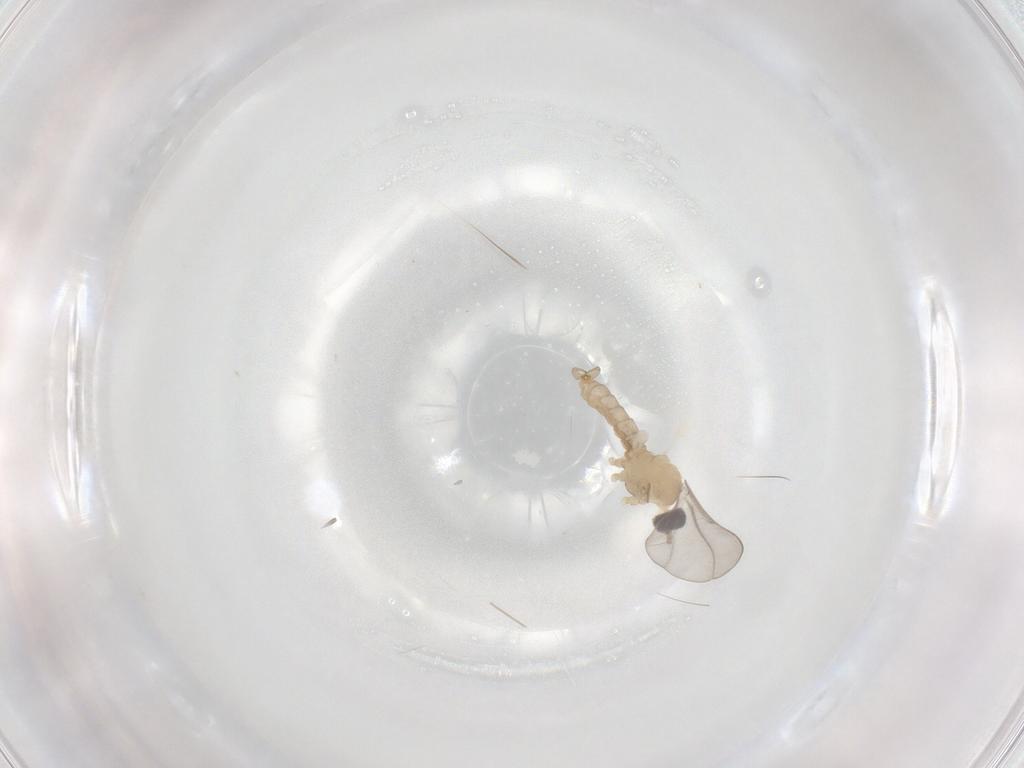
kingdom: Animalia
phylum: Arthropoda
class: Insecta
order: Diptera
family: Cecidomyiidae
